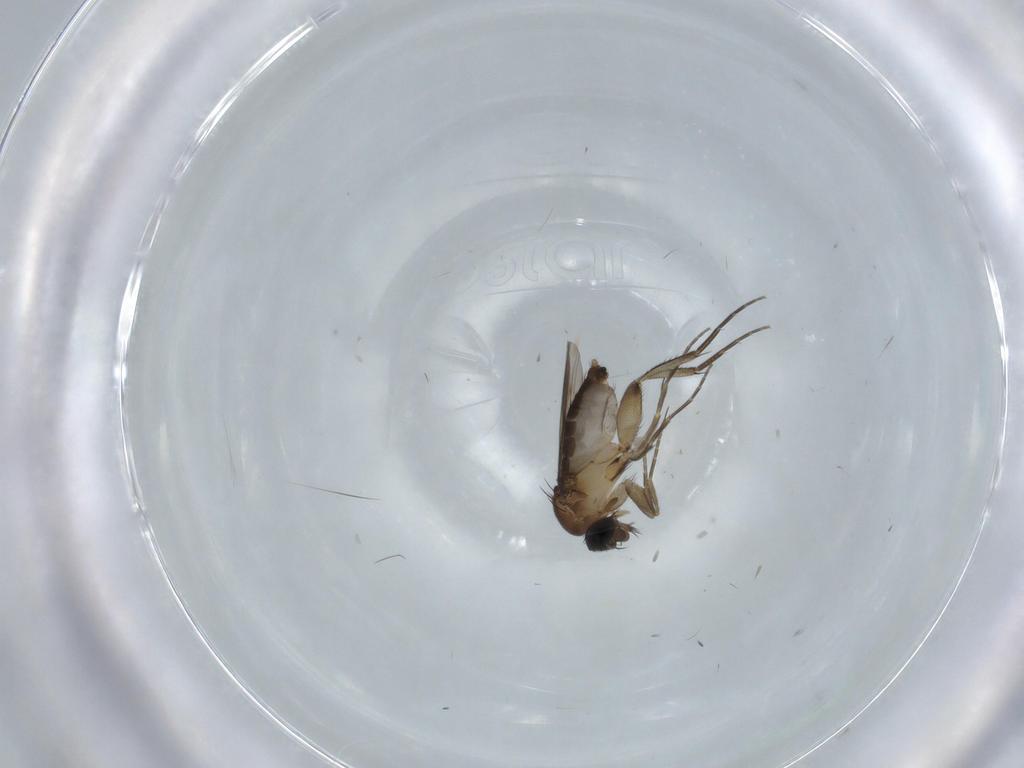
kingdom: Animalia
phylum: Arthropoda
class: Insecta
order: Diptera
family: Phoridae
